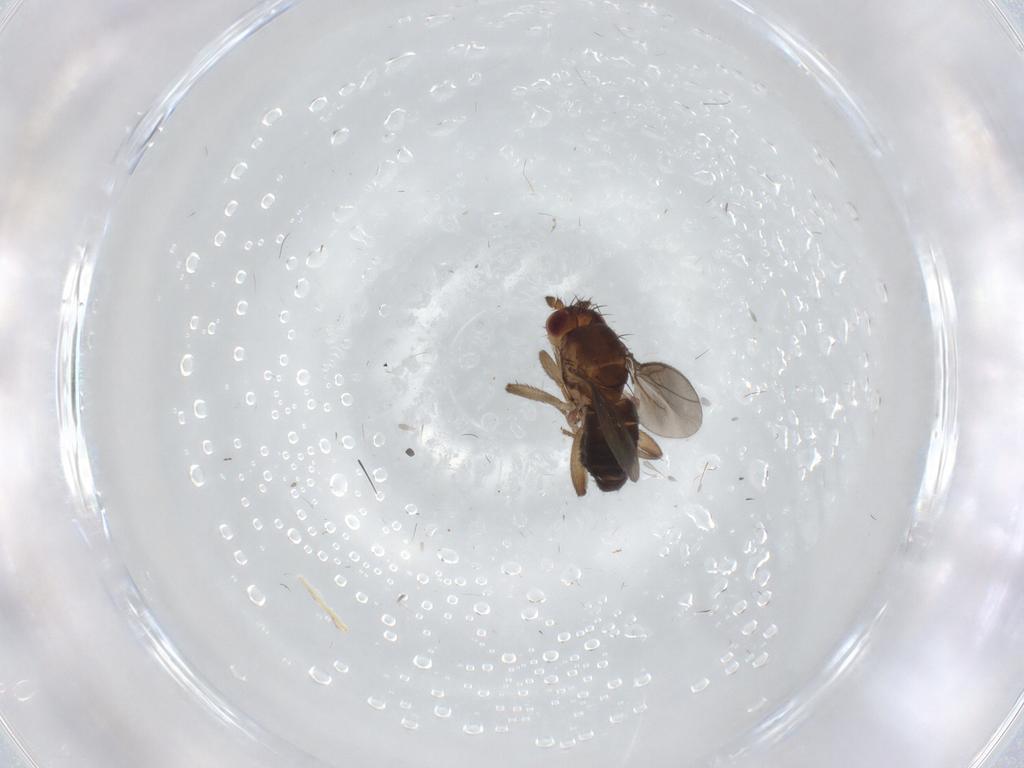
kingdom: Animalia
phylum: Arthropoda
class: Insecta
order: Diptera
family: Sphaeroceridae
